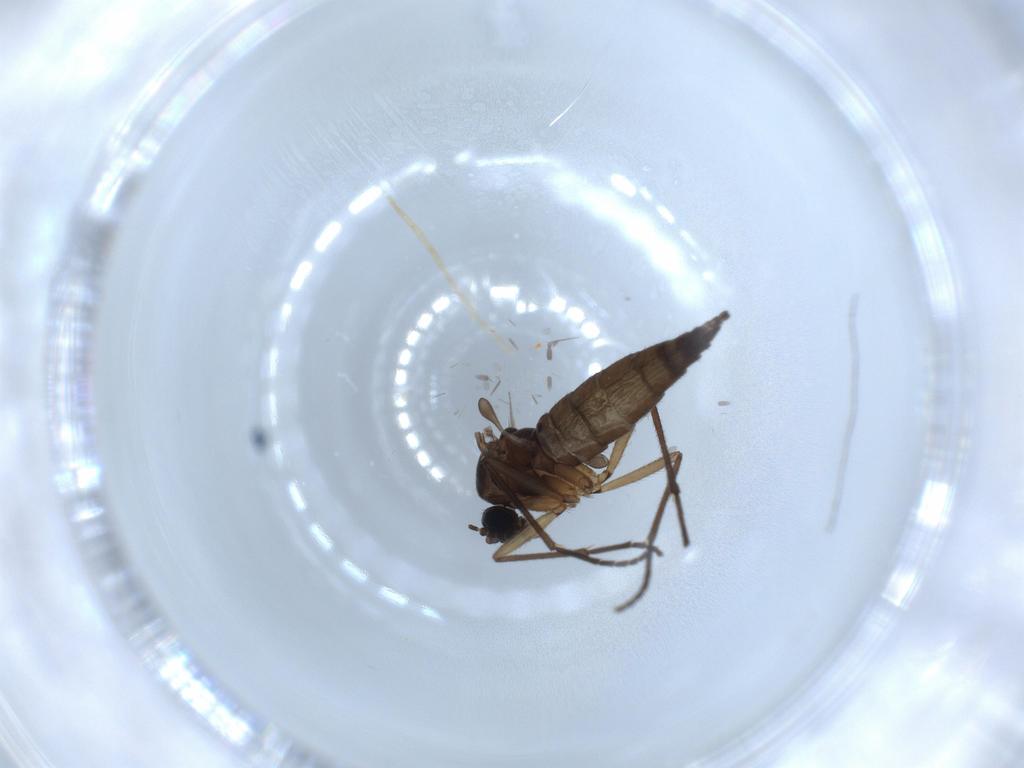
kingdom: Animalia
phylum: Arthropoda
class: Insecta
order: Diptera
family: Sciaridae
